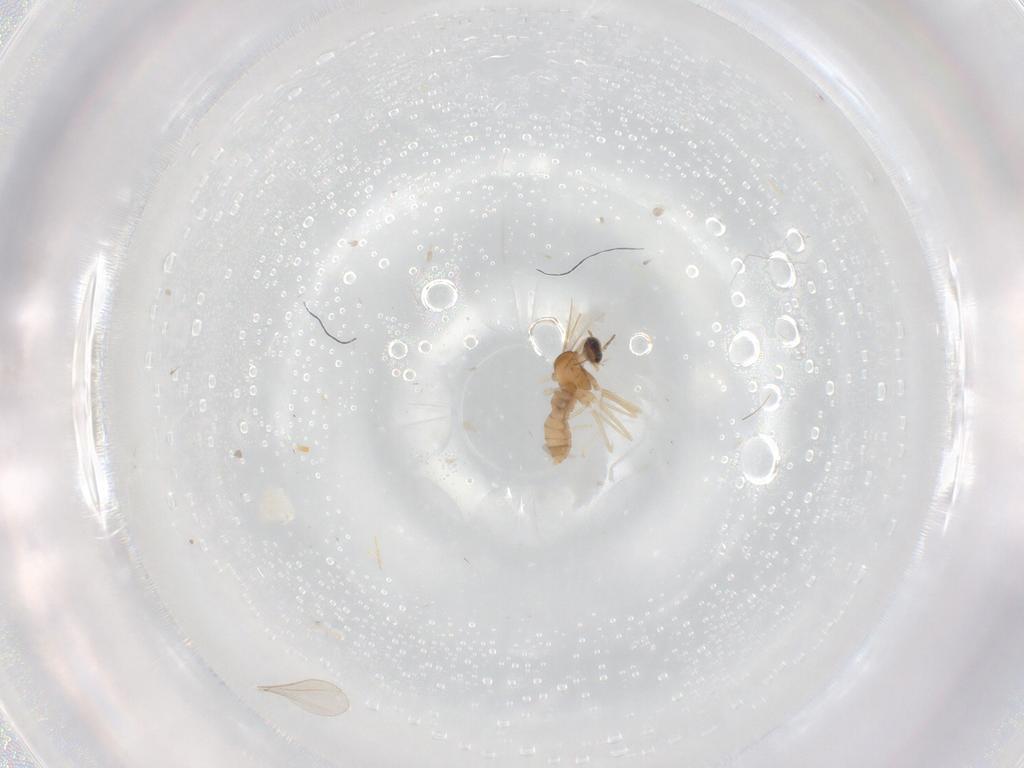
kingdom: Animalia
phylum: Arthropoda
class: Insecta
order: Diptera
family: Cecidomyiidae
